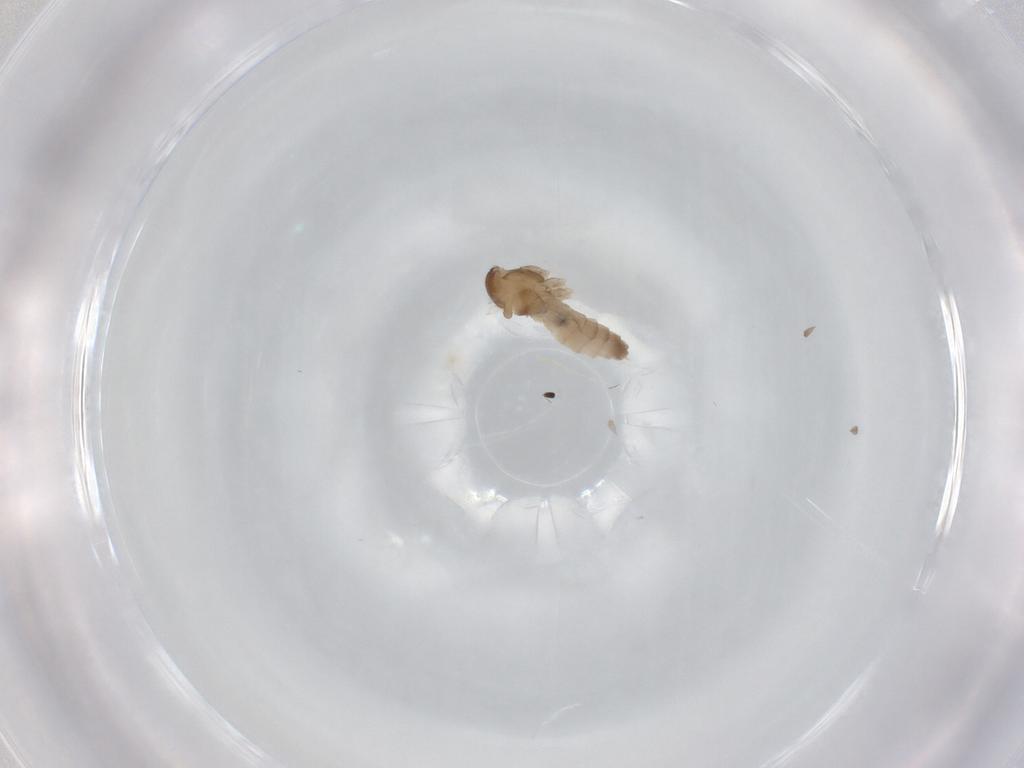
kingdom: Animalia
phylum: Arthropoda
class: Insecta
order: Diptera
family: Cecidomyiidae
